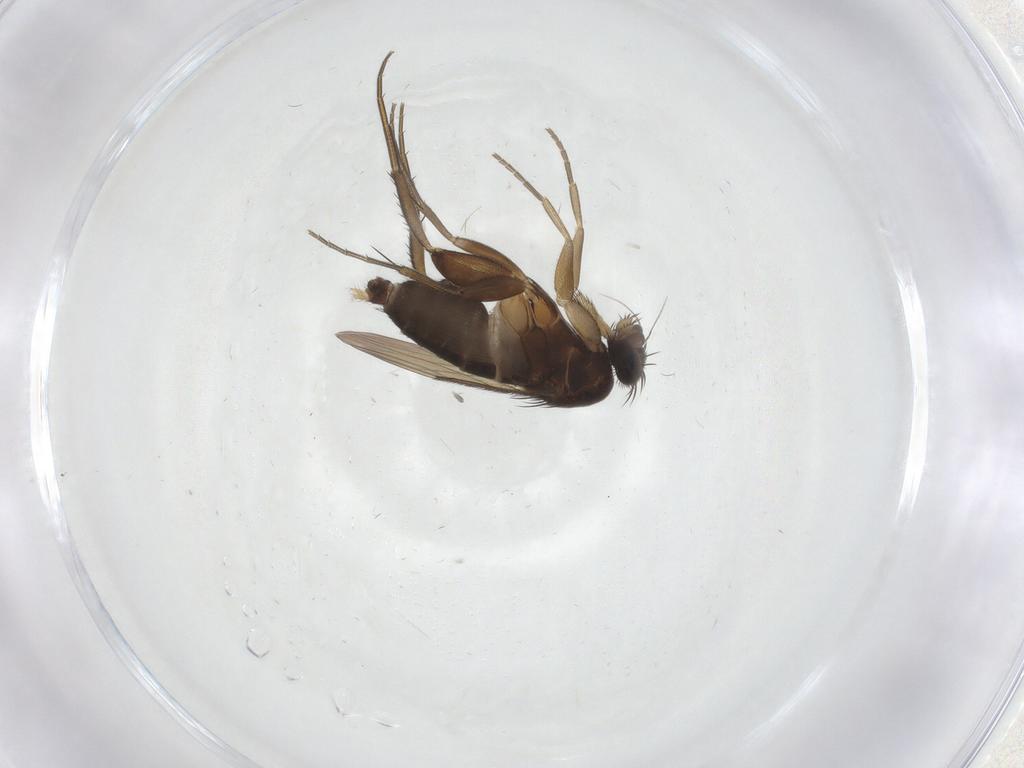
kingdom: Animalia
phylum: Arthropoda
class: Insecta
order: Diptera
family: Phoridae
